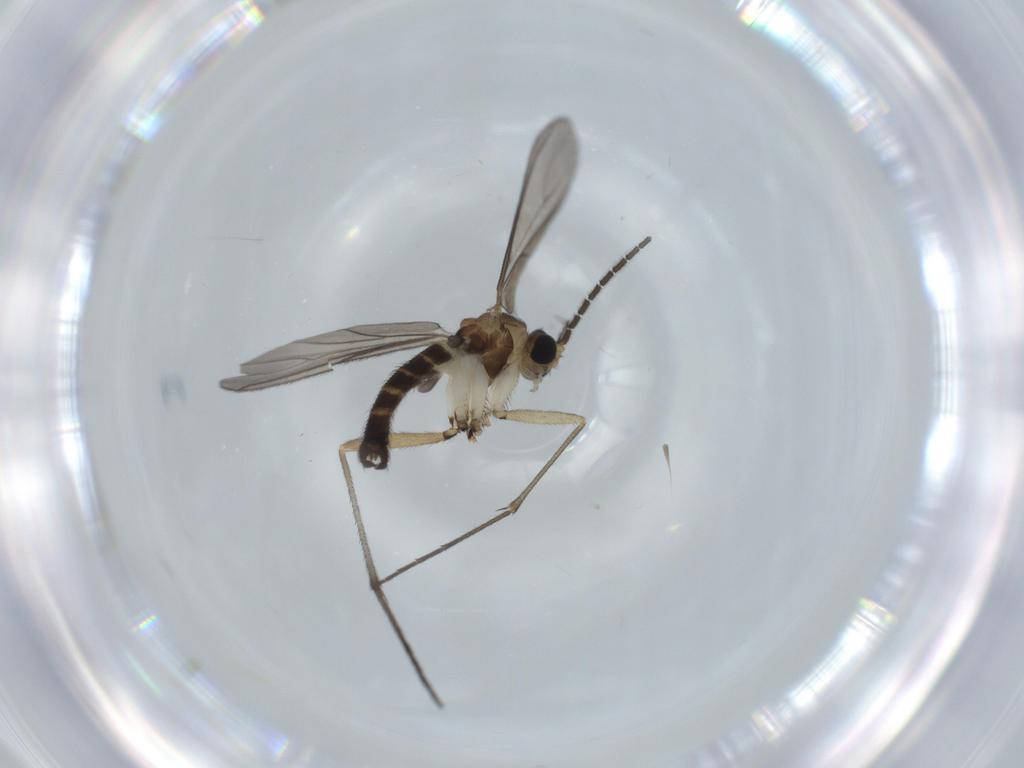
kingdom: Animalia
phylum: Arthropoda
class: Insecta
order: Diptera
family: Sciaridae
